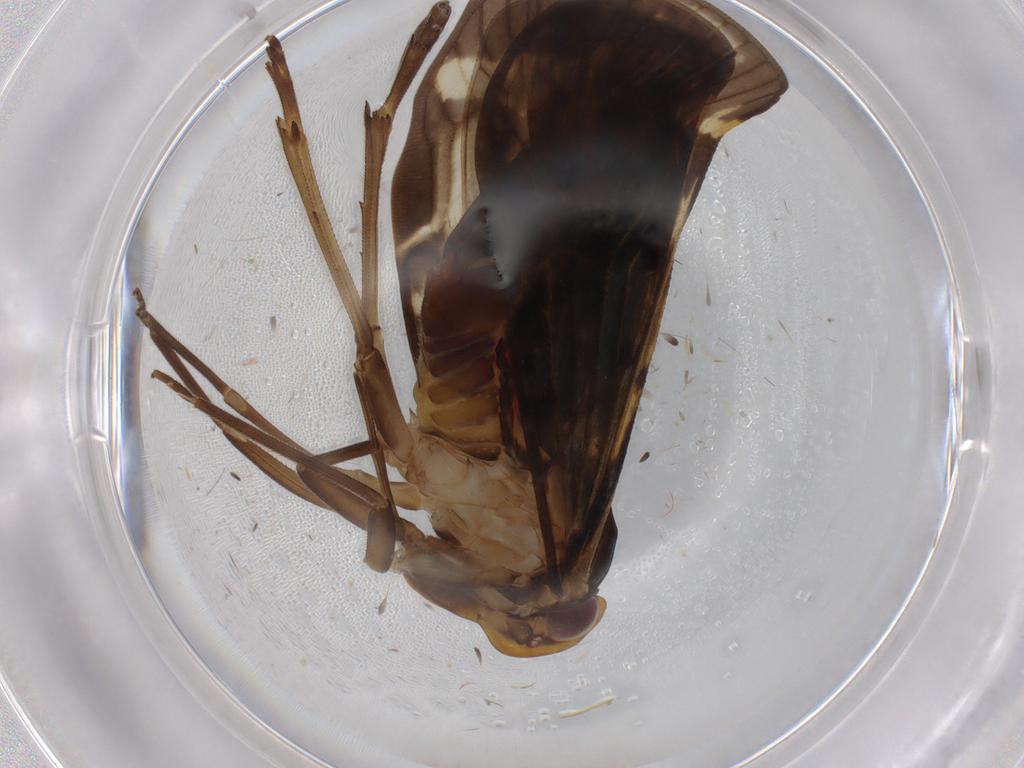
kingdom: Animalia
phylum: Arthropoda
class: Insecta
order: Hemiptera
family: Cixiidae
